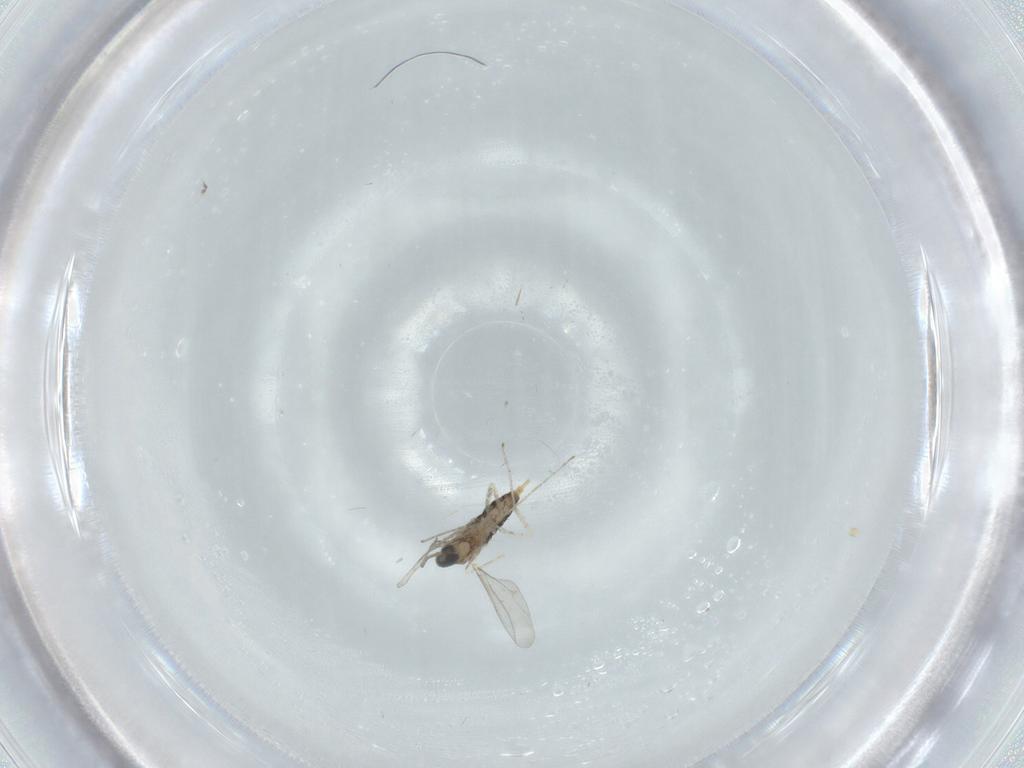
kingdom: Animalia
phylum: Arthropoda
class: Insecta
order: Diptera
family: Cecidomyiidae
